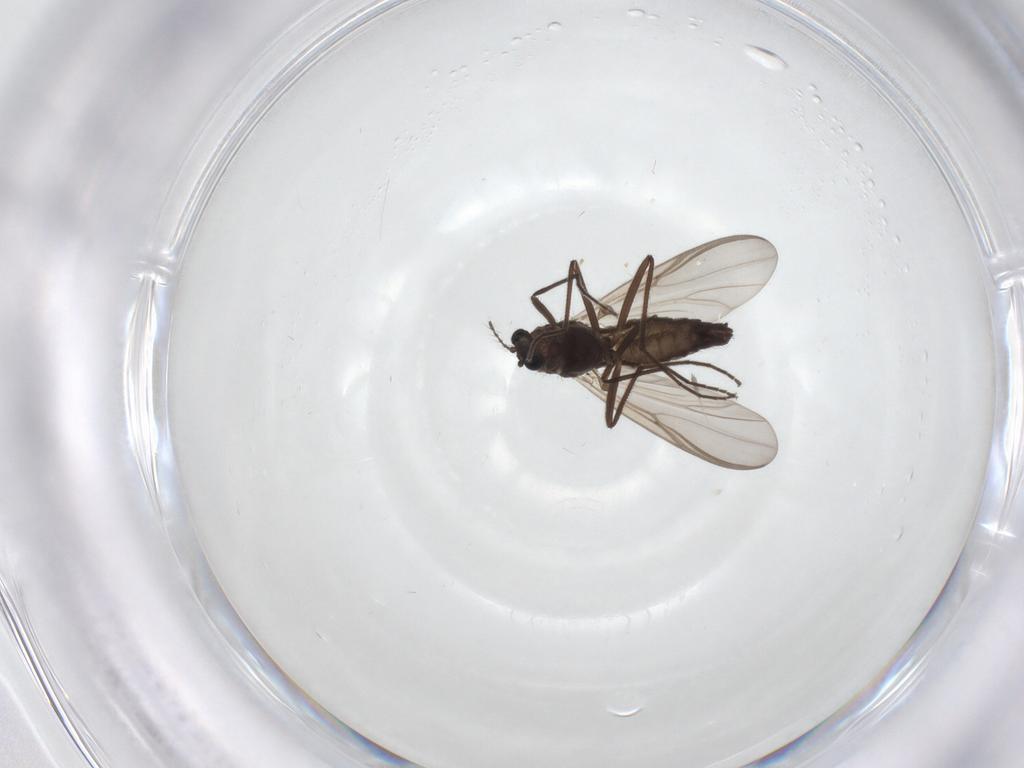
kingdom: Animalia
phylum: Arthropoda
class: Insecta
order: Diptera
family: Chironomidae
